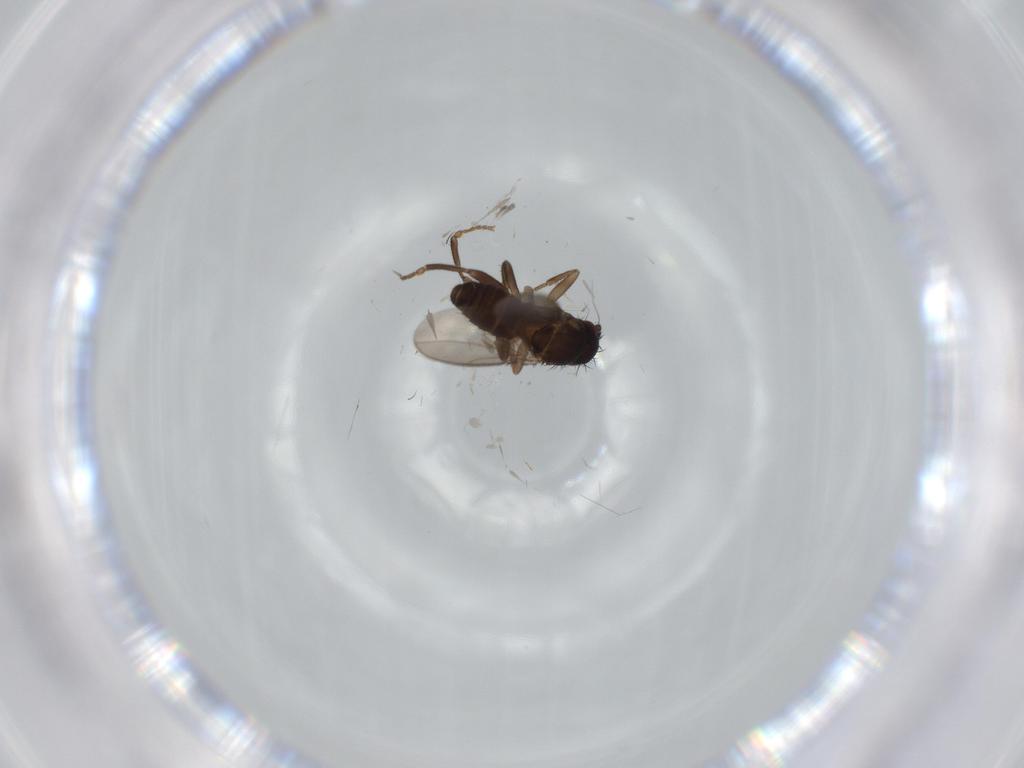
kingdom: Animalia
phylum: Arthropoda
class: Insecta
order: Diptera
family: Sphaeroceridae
